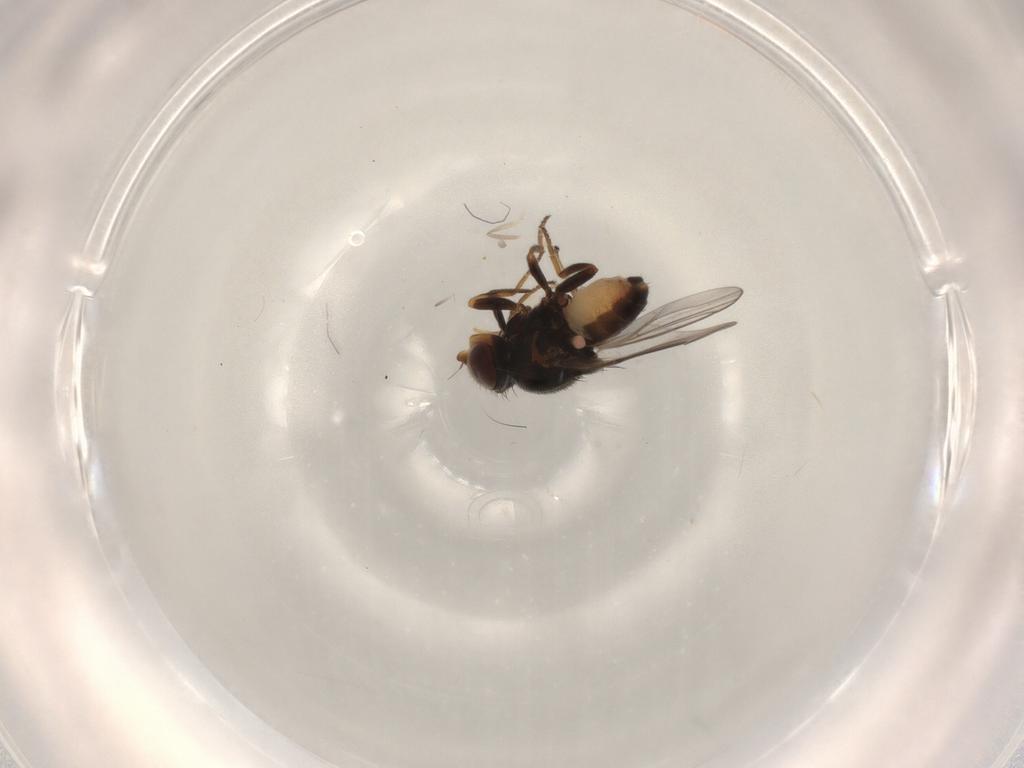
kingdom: Animalia
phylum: Arthropoda
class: Insecta
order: Diptera
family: Chloropidae
